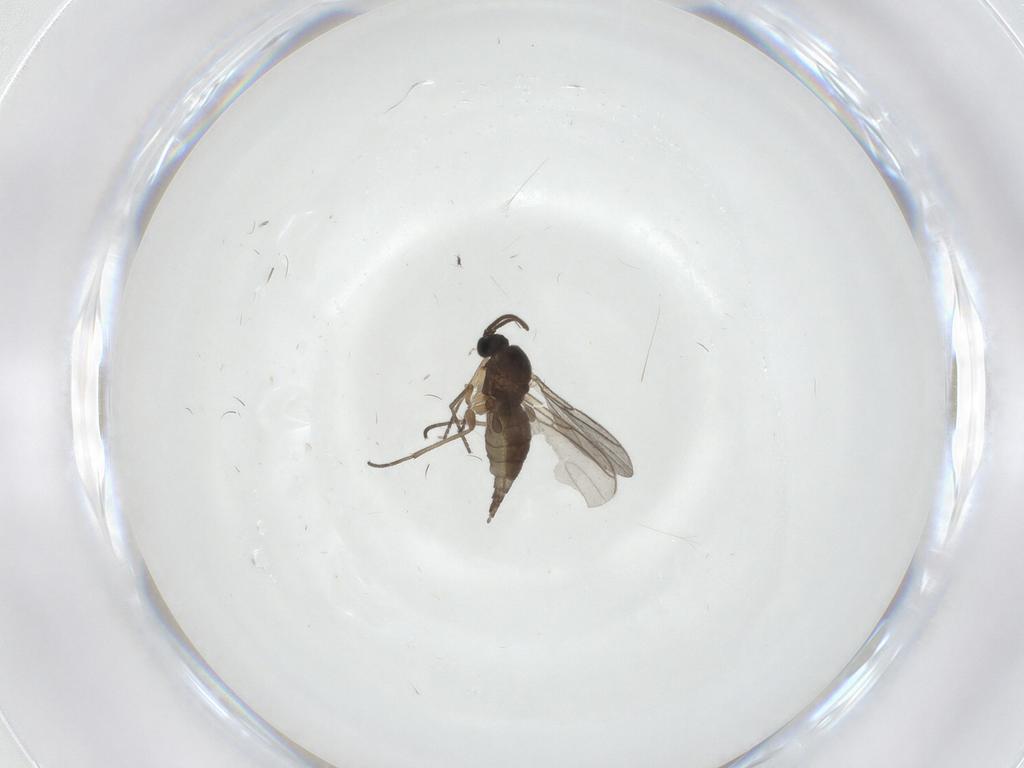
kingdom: Animalia
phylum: Arthropoda
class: Insecta
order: Diptera
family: Sciaridae
